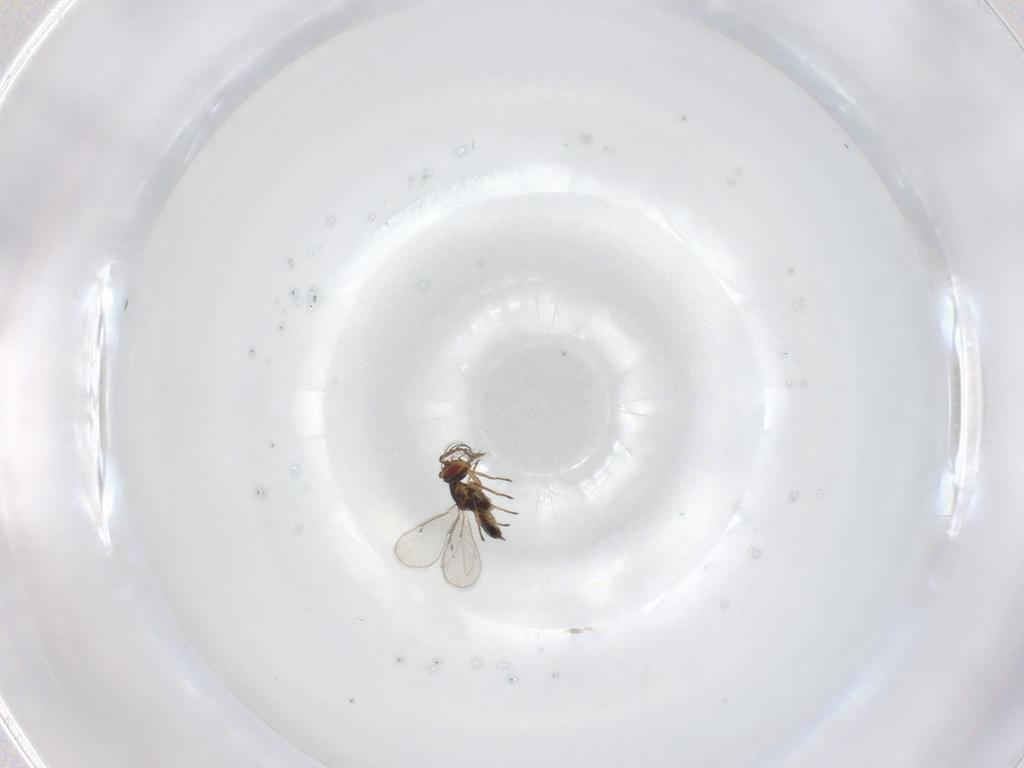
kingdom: Animalia
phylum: Arthropoda
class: Insecta
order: Hymenoptera
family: Eulophidae
